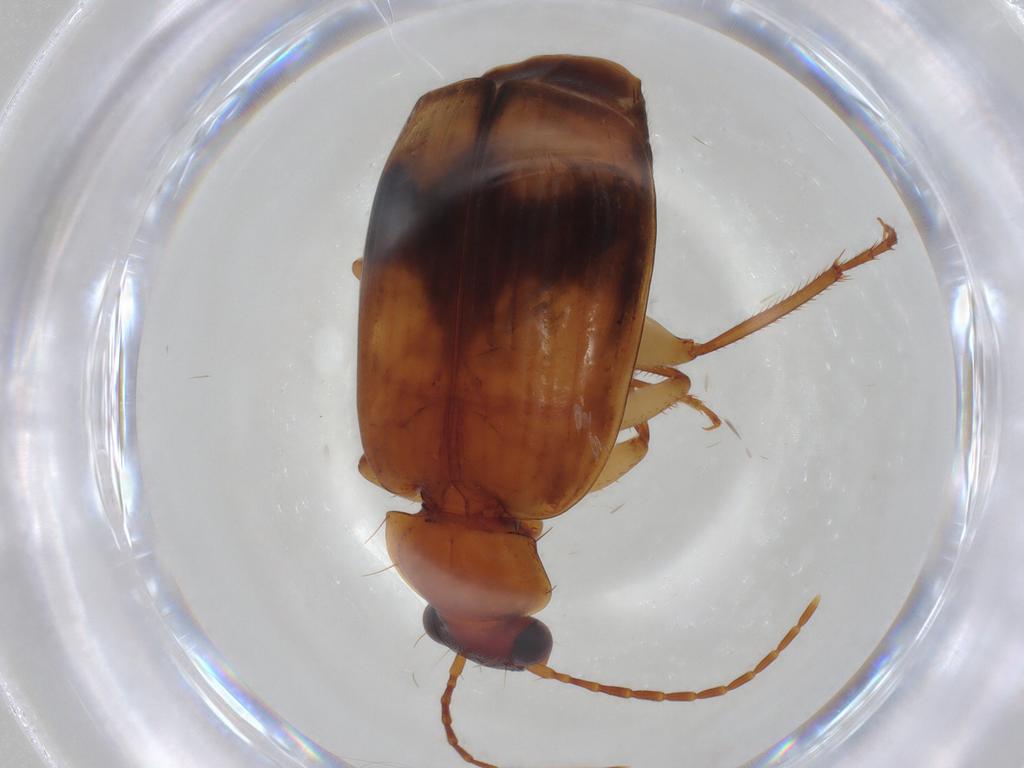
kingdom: Animalia
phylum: Arthropoda
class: Insecta
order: Coleoptera
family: Carabidae
